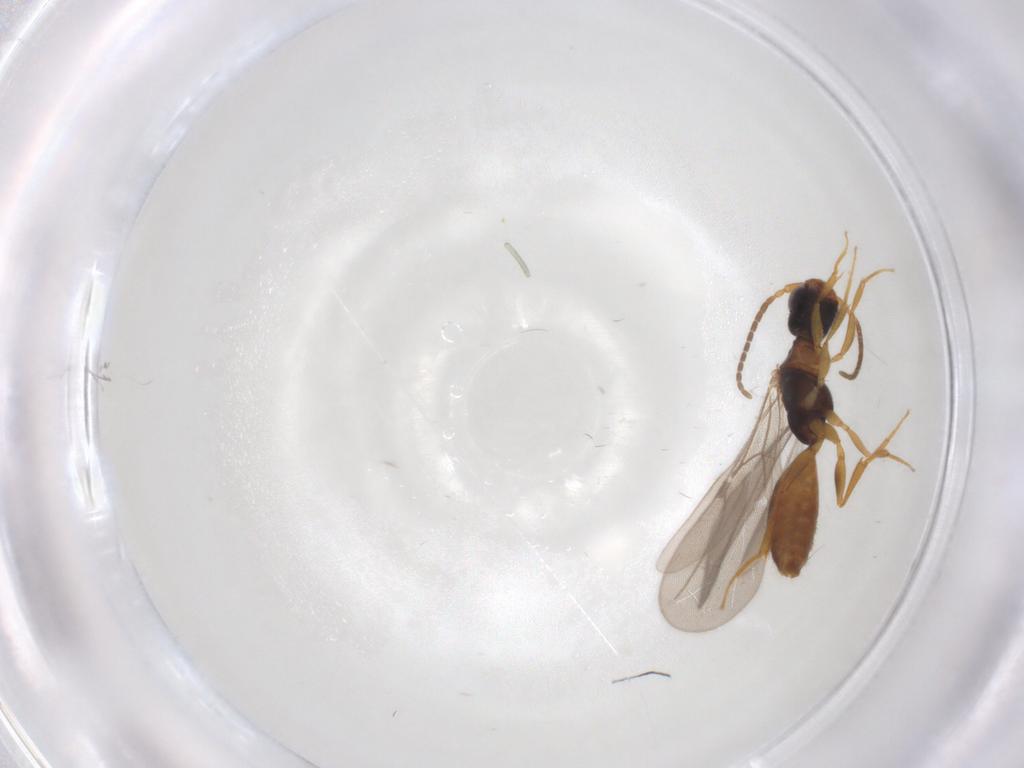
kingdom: Animalia
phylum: Arthropoda
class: Insecta
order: Hymenoptera
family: Bethylidae
